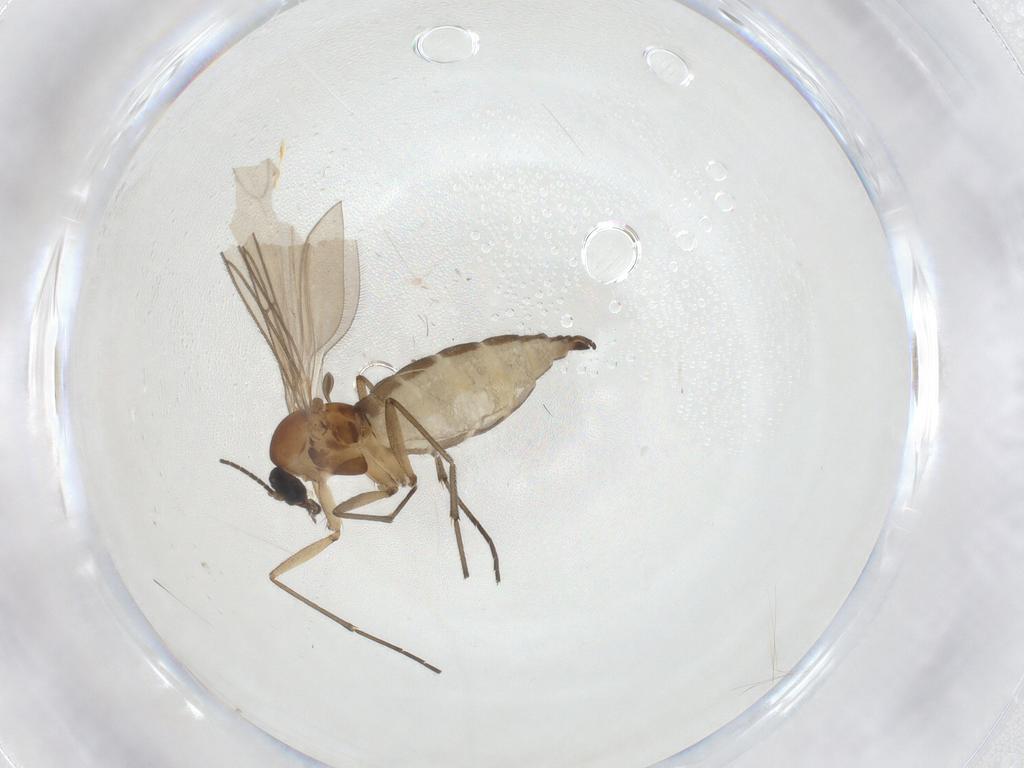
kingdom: Animalia
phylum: Arthropoda
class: Insecta
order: Diptera
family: Sciaridae
